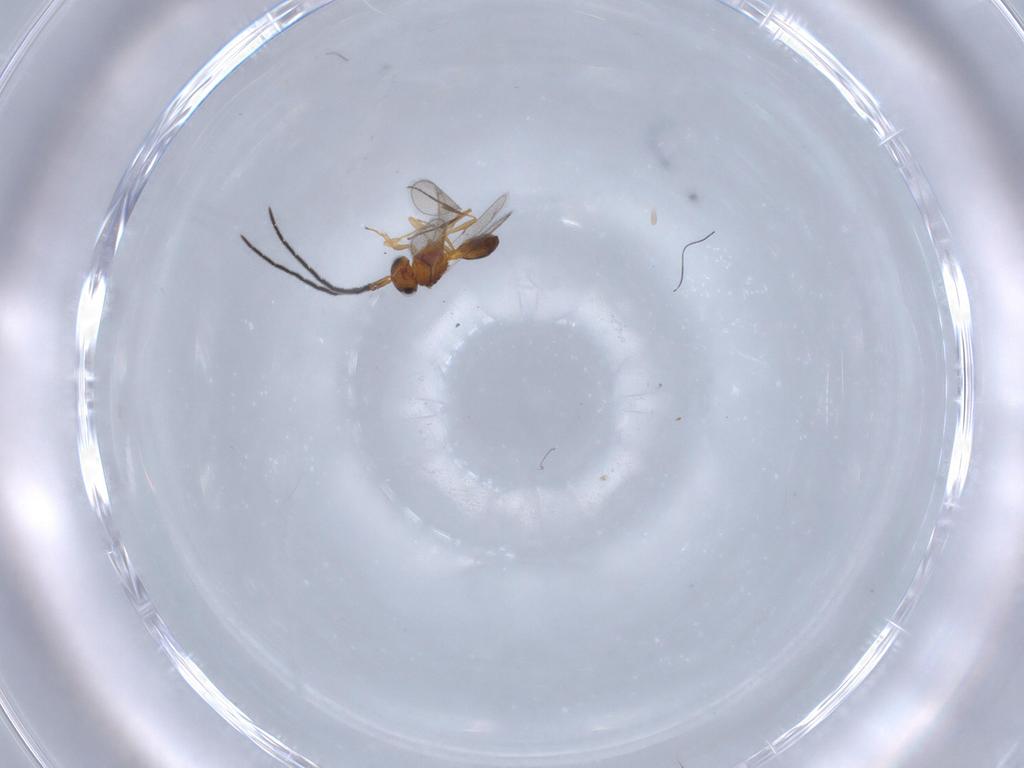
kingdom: Animalia
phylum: Arthropoda
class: Insecta
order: Hymenoptera
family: Scelionidae
